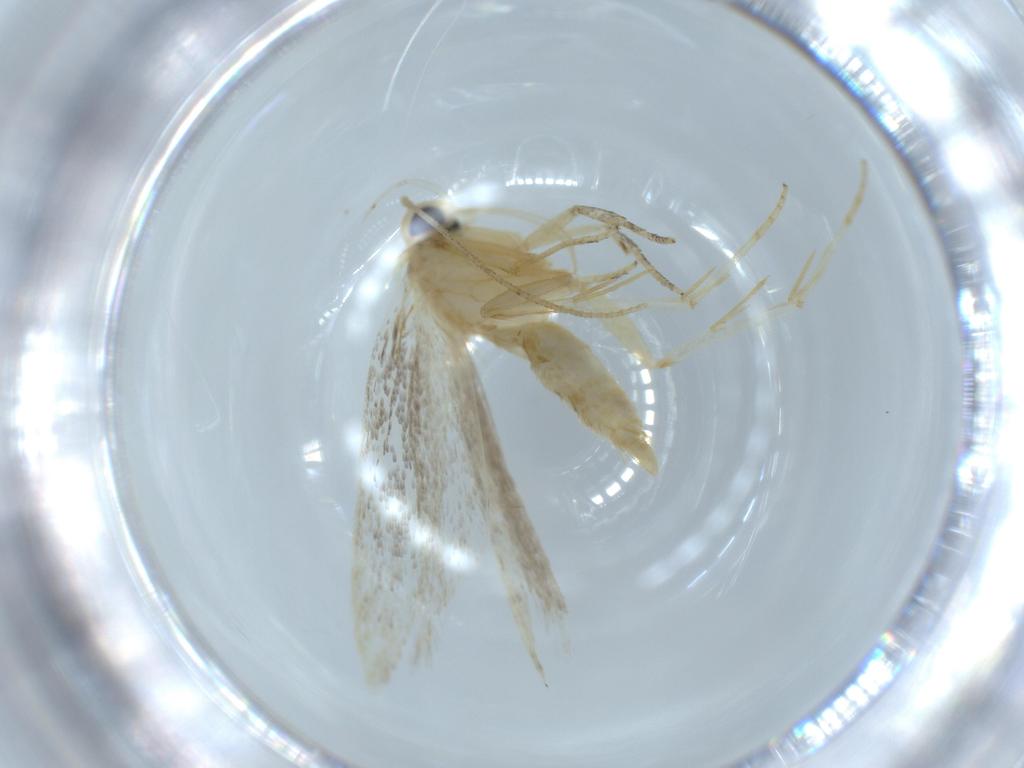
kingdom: Animalia
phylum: Arthropoda
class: Insecta
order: Lepidoptera
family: Autostichidae
